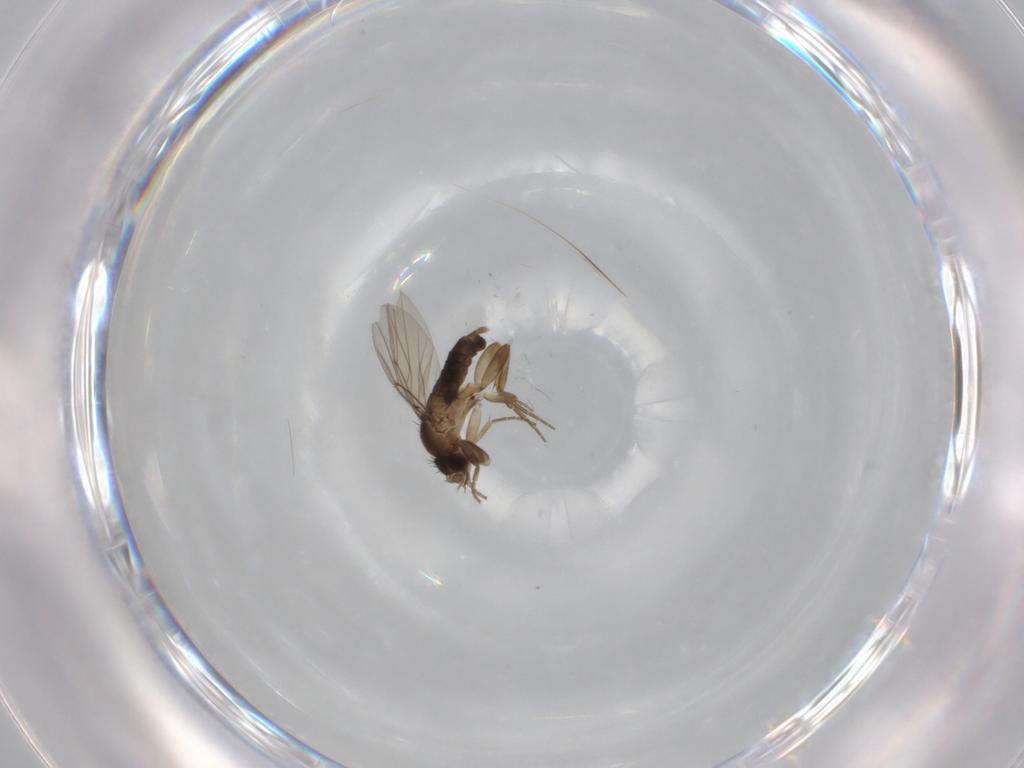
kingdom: Animalia
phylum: Arthropoda
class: Insecta
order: Diptera
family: Phoridae
